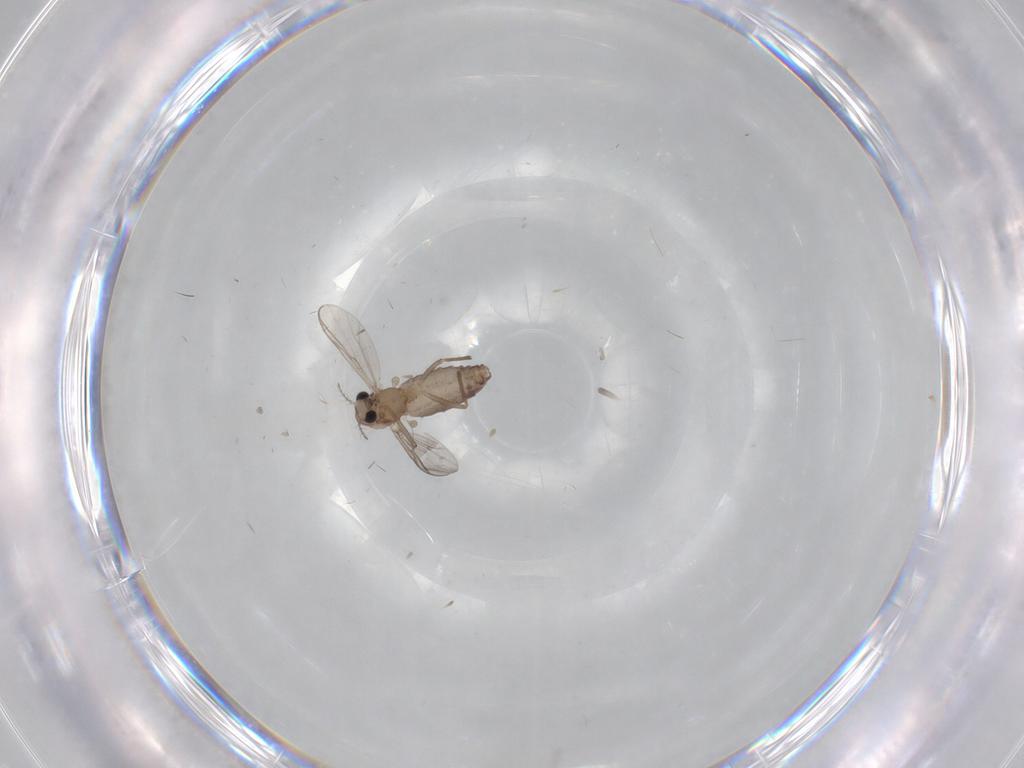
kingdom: Animalia
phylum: Arthropoda
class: Insecta
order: Diptera
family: Chironomidae
